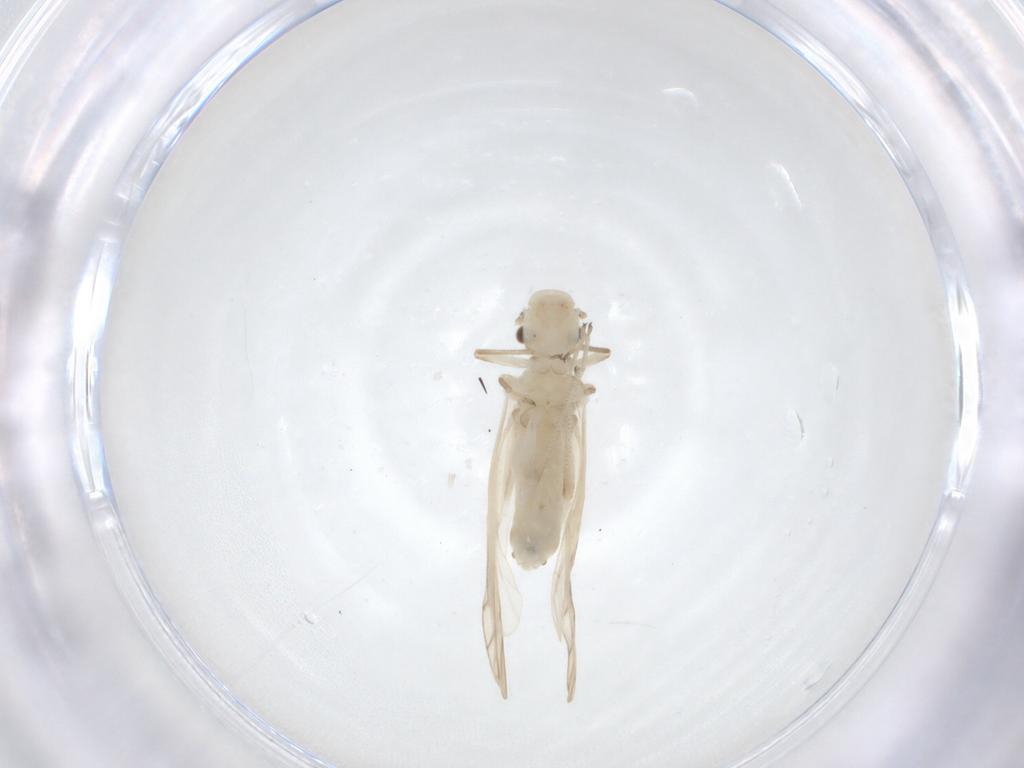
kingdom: Animalia
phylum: Arthropoda
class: Insecta
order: Psocodea
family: Caeciliusidae
